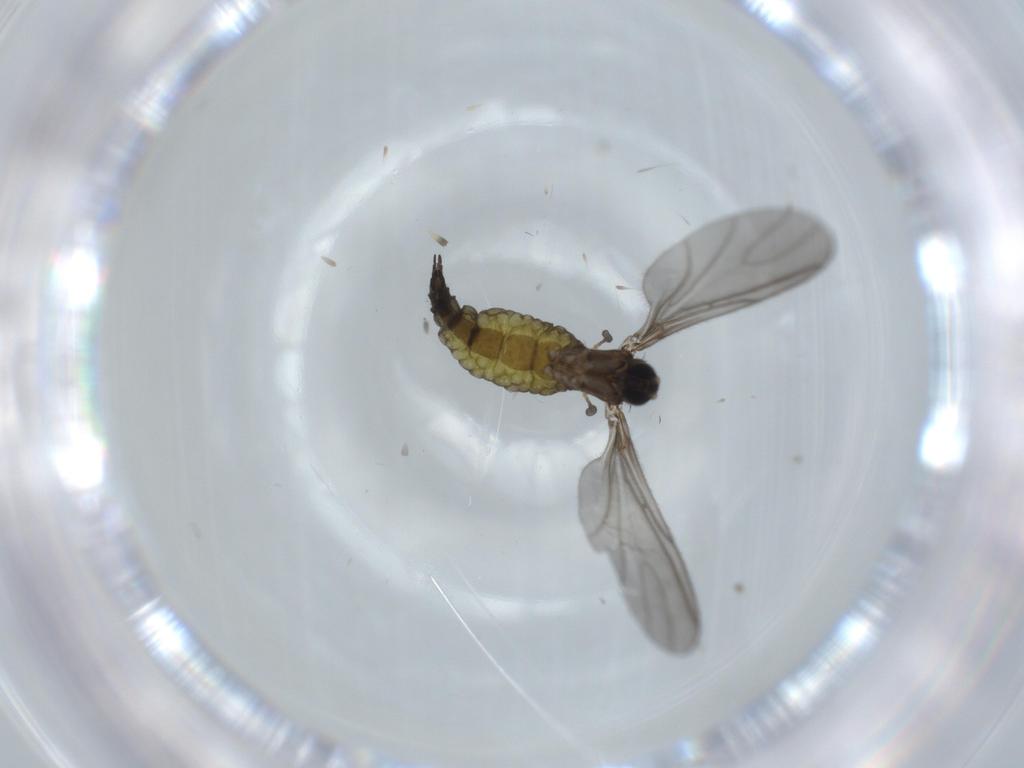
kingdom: Animalia
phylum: Arthropoda
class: Insecta
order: Diptera
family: Sciaridae
